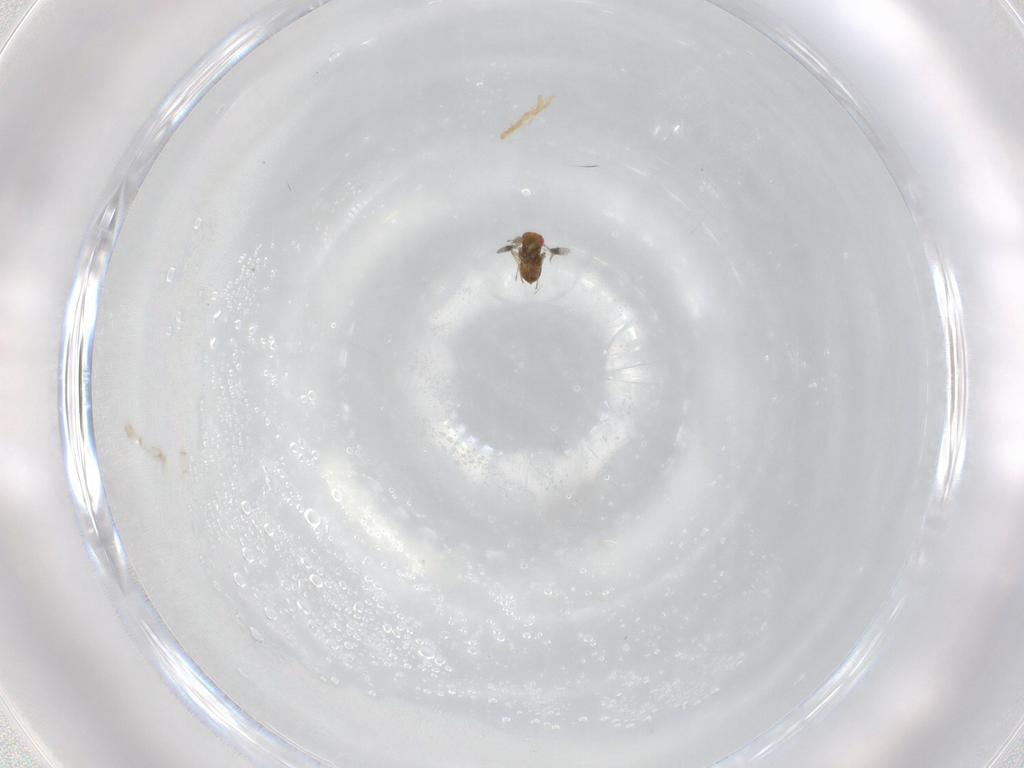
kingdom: Animalia
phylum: Arthropoda
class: Insecta
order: Hymenoptera
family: Trichogrammatidae
